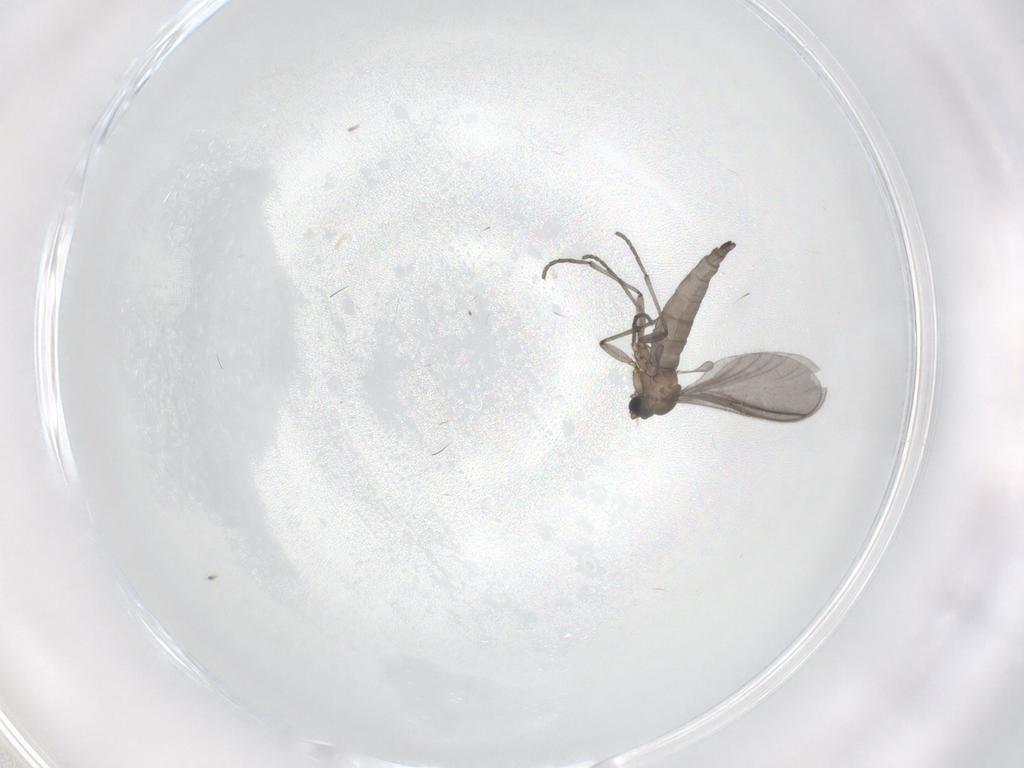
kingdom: Animalia
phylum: Arthropoda
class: Insecta
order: Diptera
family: Sciaridae
